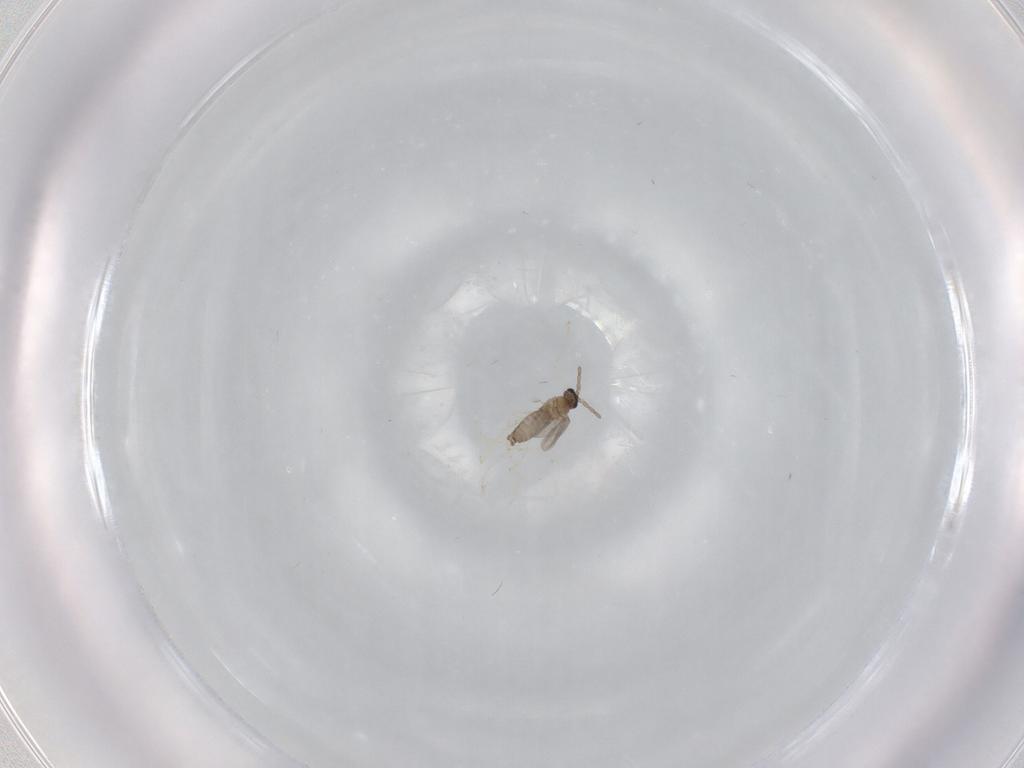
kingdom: Animalia
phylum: Arthropoda
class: Insecta
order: Diptera
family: Cecidomyiidae
